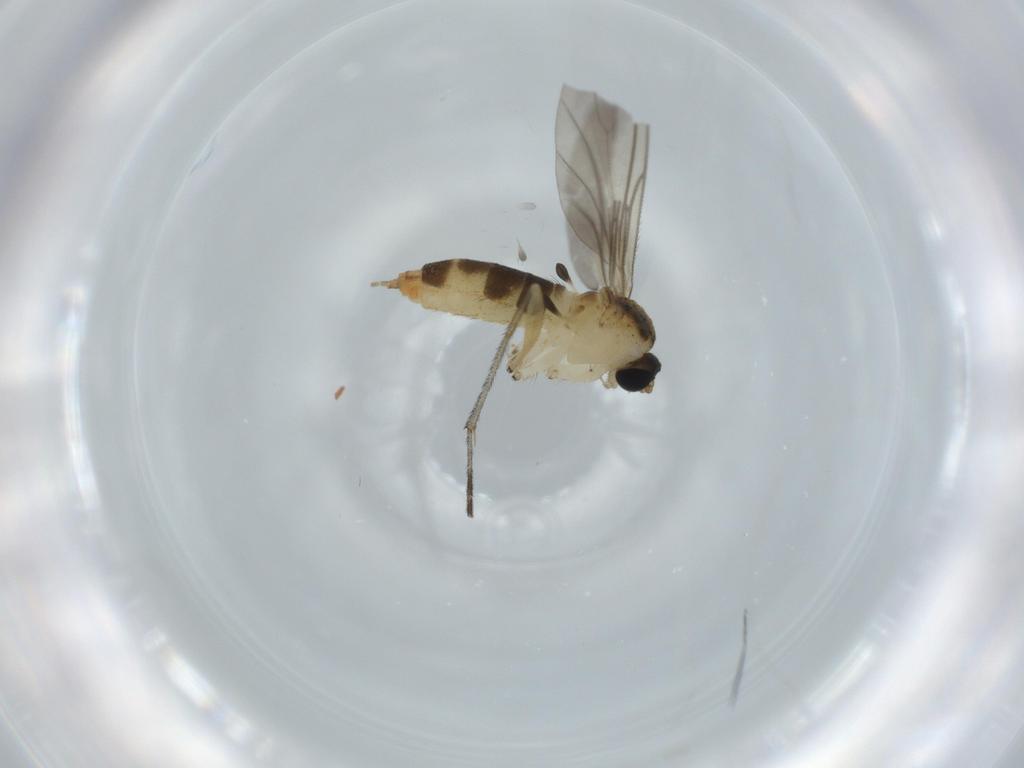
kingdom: Animalia
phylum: Arthropoda
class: Insecta
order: Diptera
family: Sciaridae
